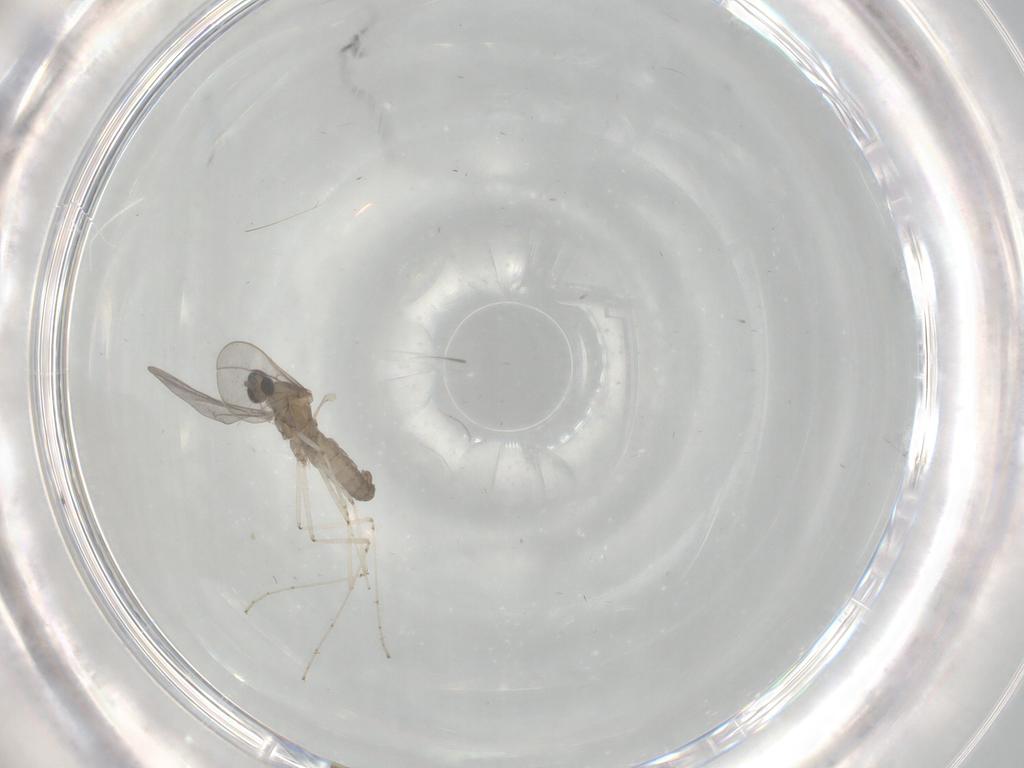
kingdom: Animalia
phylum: Arthropoda
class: Insecta
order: Diptera
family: Cecidomyiidae
